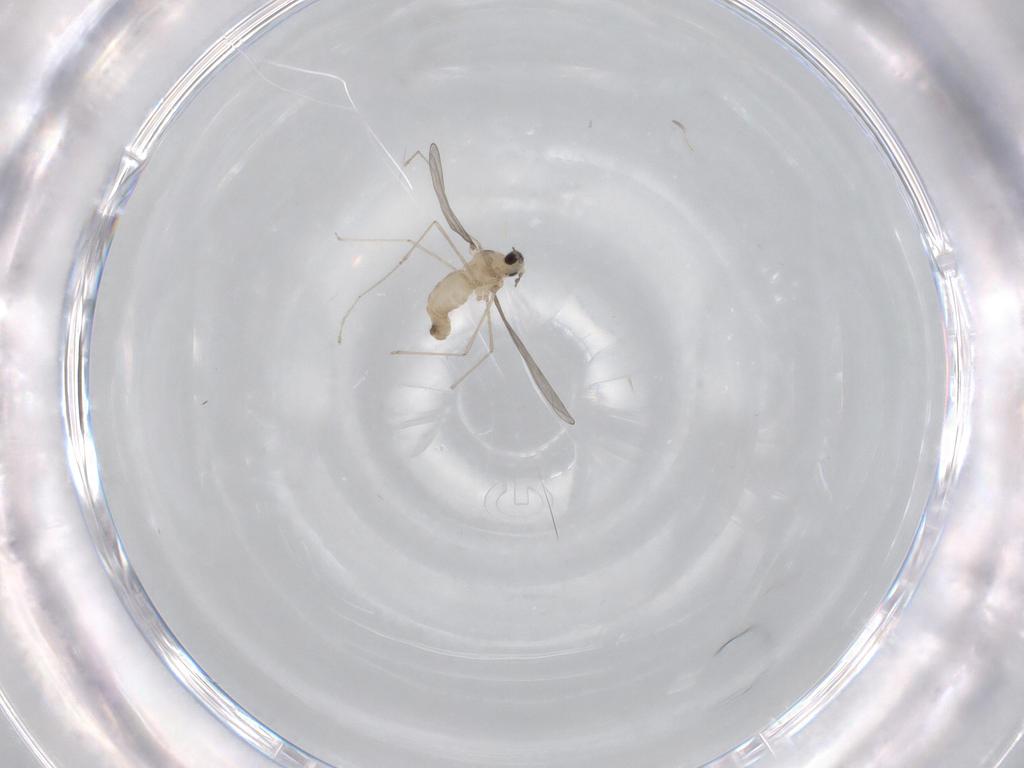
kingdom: Animalia
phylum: Arthropoda
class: Insecta
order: Diptera
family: Cecidomyiidae
